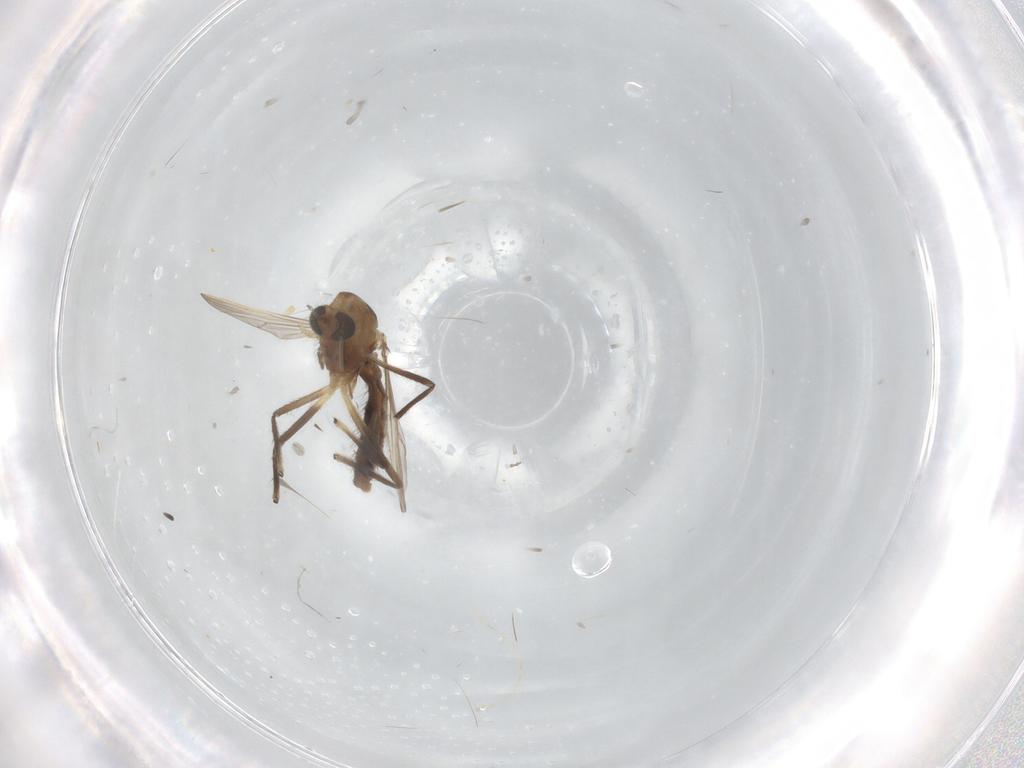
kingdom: Animalia
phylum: Arthropoda
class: Insecta
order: Diptera
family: Chironomidae
